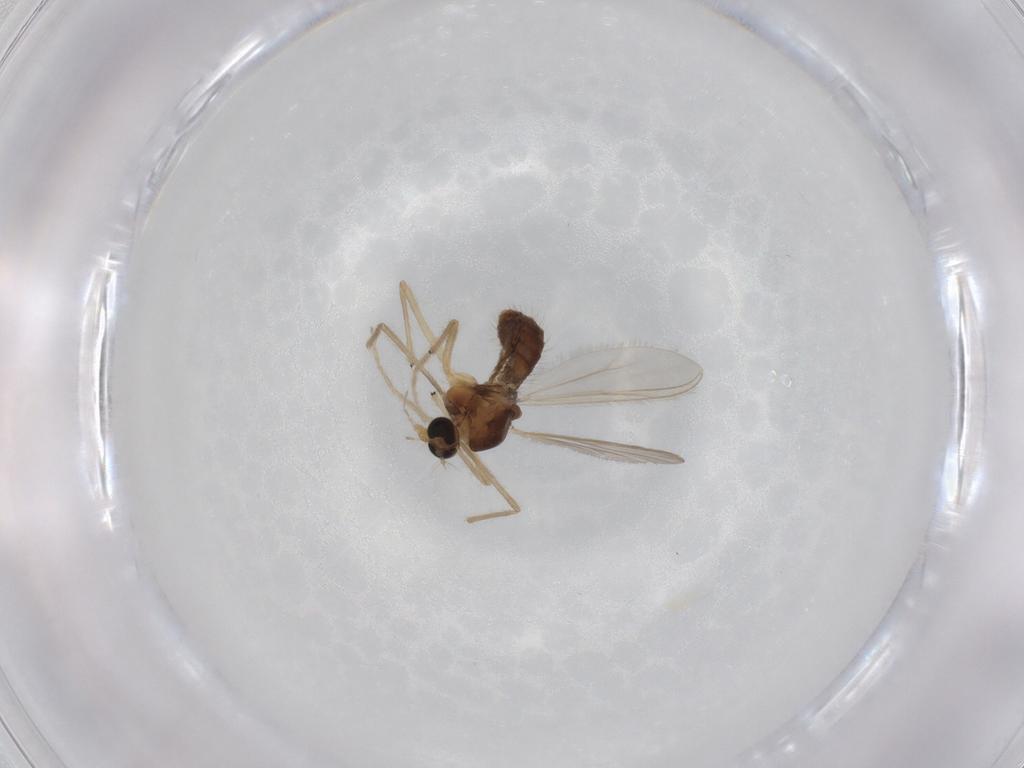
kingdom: Animalia
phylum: Arthropoda
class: Insecta
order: Diptera
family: Chironomidae
